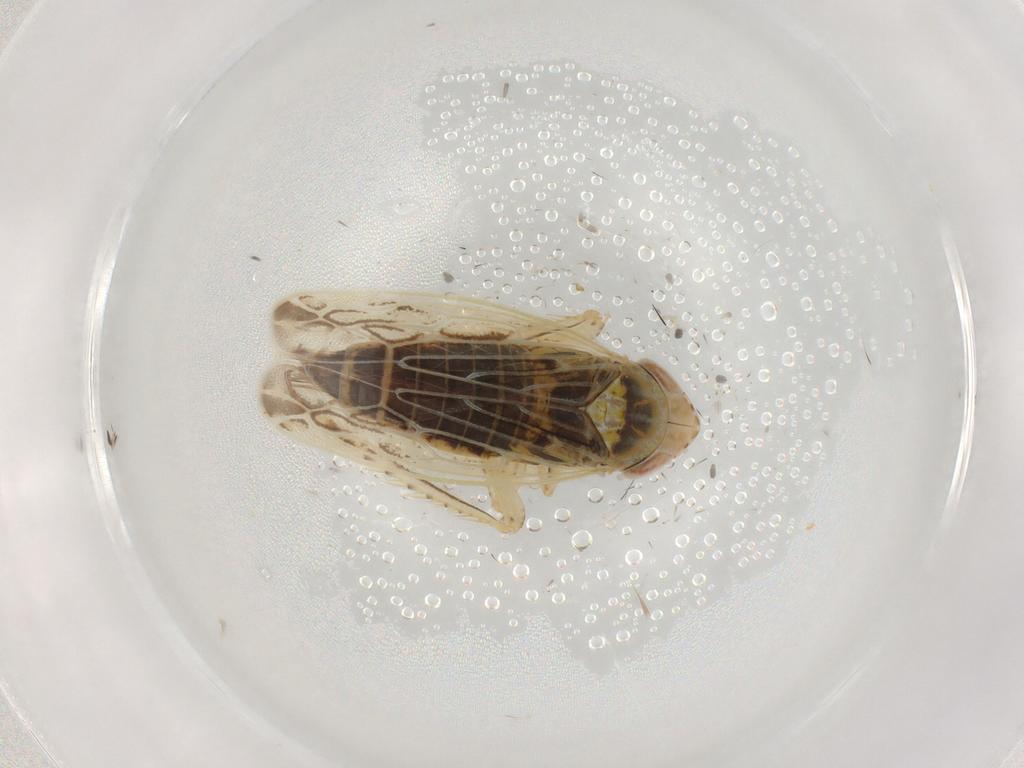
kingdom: Animalia
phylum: Arthropoda
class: Insecta
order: Hemiptera
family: Cicadellidae
